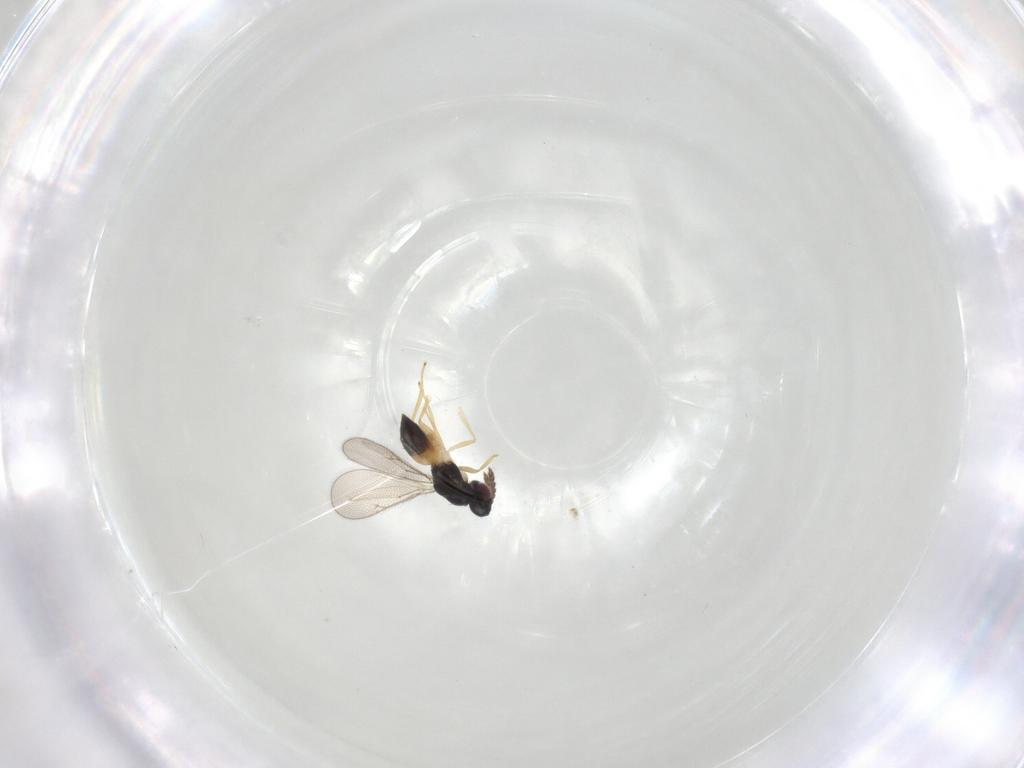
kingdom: Animalia
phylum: Arthropoda
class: Insecta
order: Hymenoptera
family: Eulophidae
